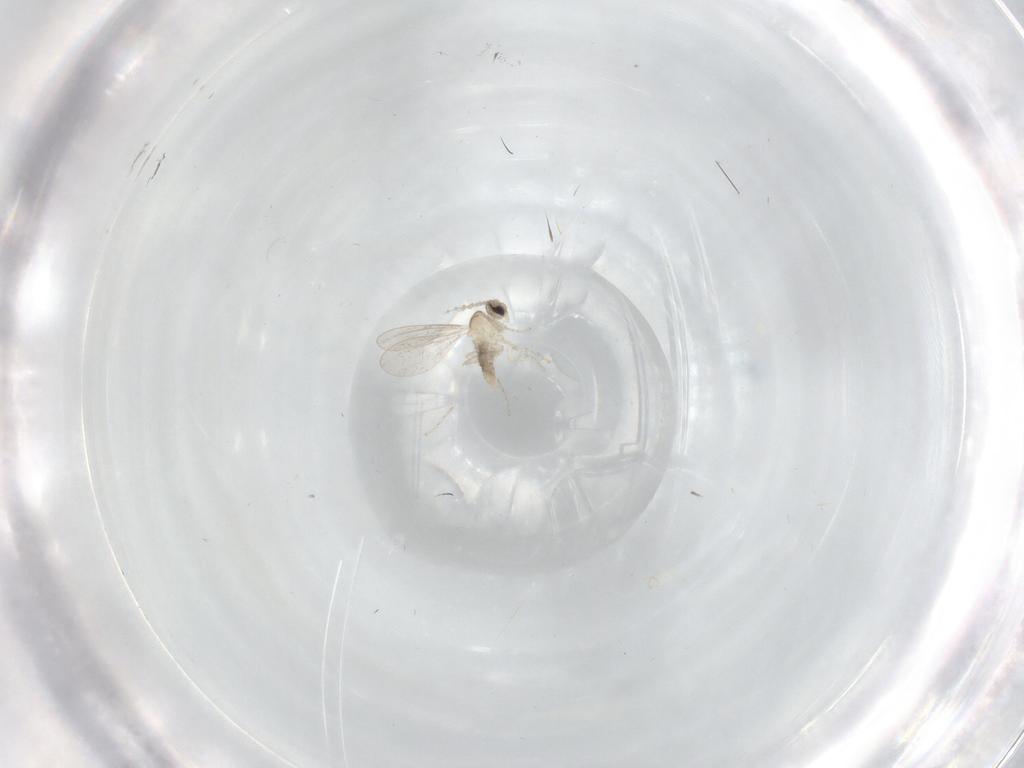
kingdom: Animalia
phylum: Arthropoda
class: Insecta
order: Diptera
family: Cecidomyiidae
